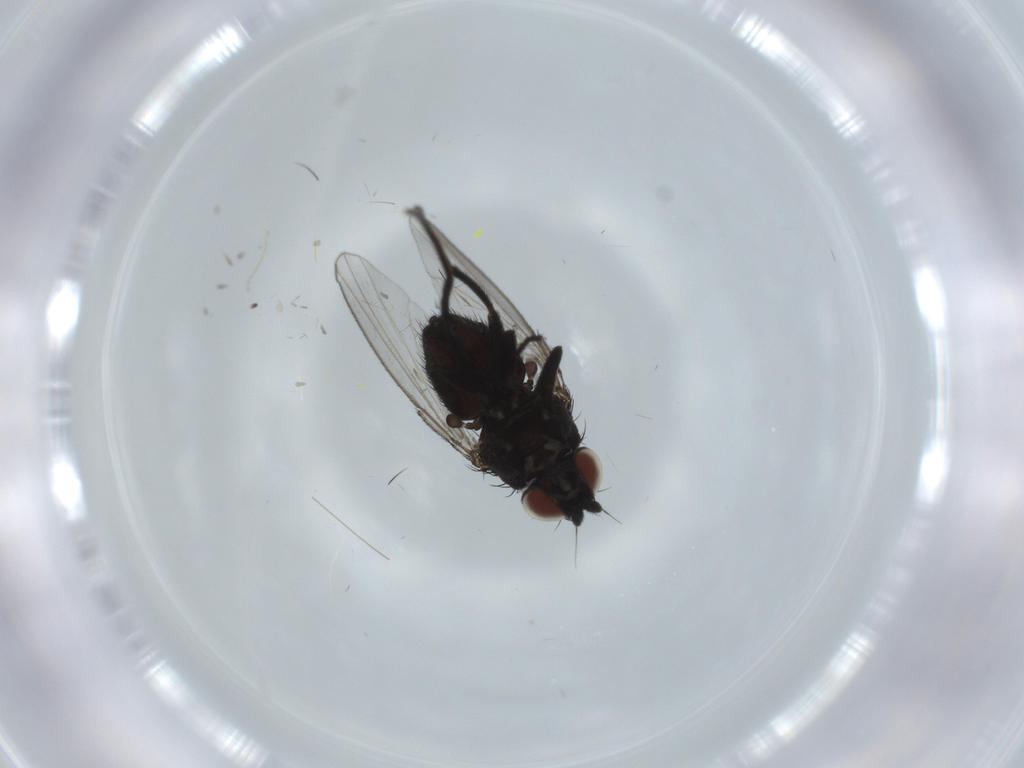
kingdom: Animalia
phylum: Arthropoda
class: Insecta
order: Diptera
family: Milichiidae
